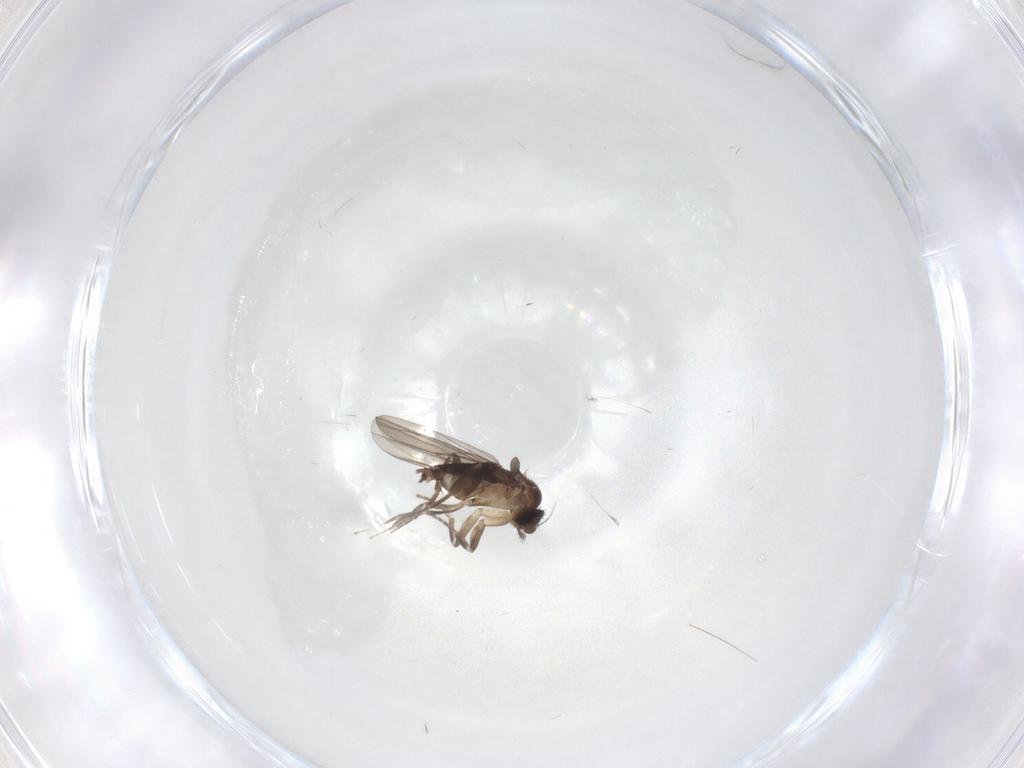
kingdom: Animalia
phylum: Arthropoda
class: Insecta
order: Diptera
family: Phoridae
